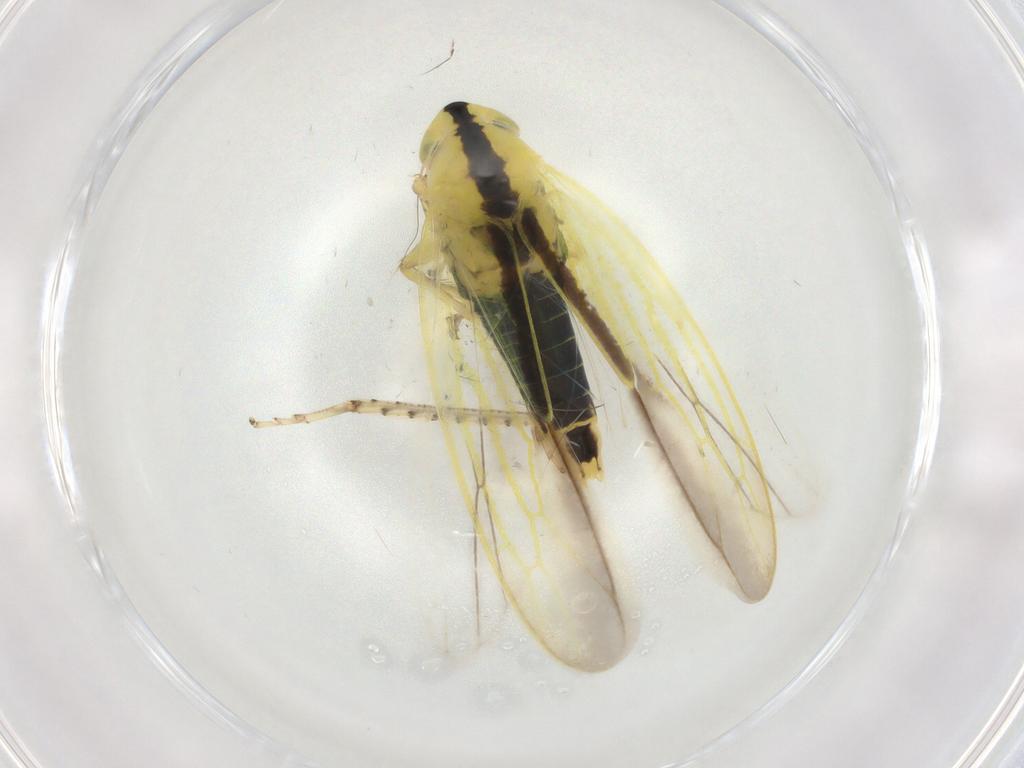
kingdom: Animalia
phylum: Arthropoda
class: Insecta
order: Hemiptera
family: Cicadellidae
